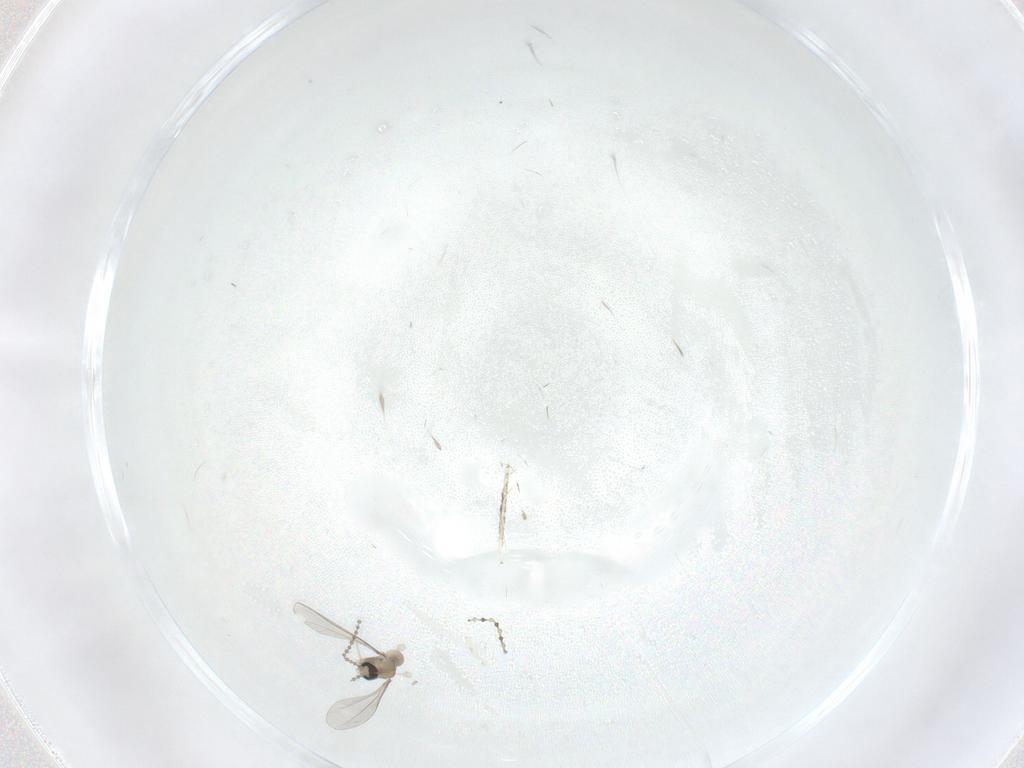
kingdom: Animalia
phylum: Arthropoda
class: Insecta
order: Diptera
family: Cecidomyiidae
